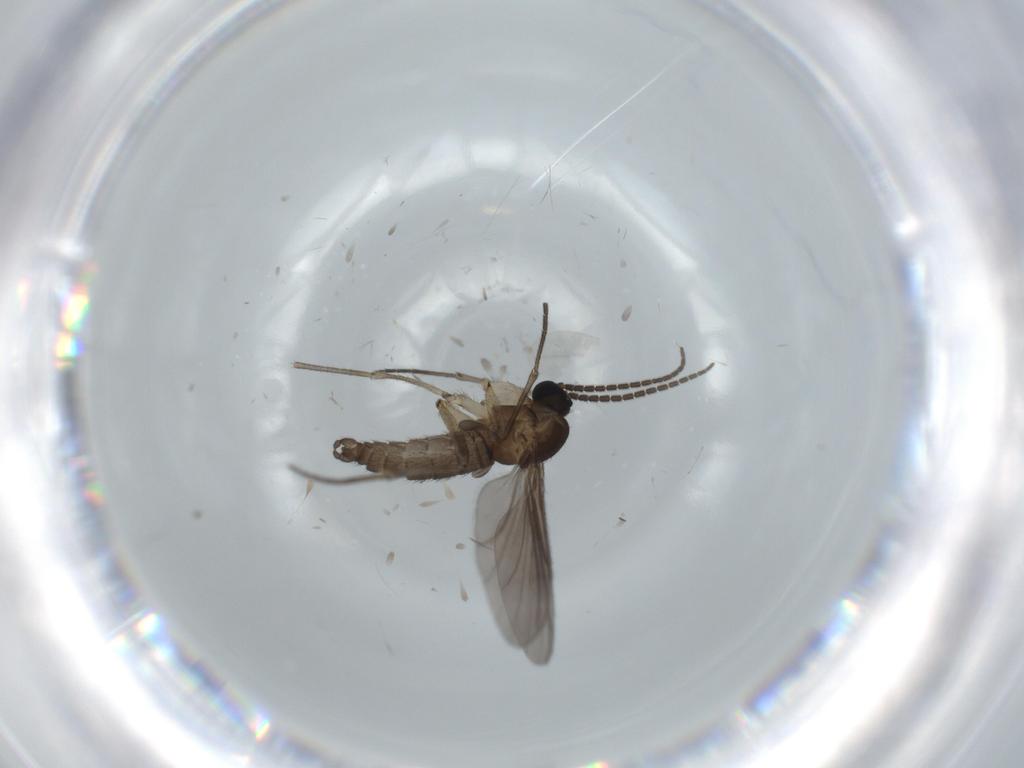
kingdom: Animalia
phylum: Arthropoda
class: Insecta
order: Diptera
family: Sciaridae
